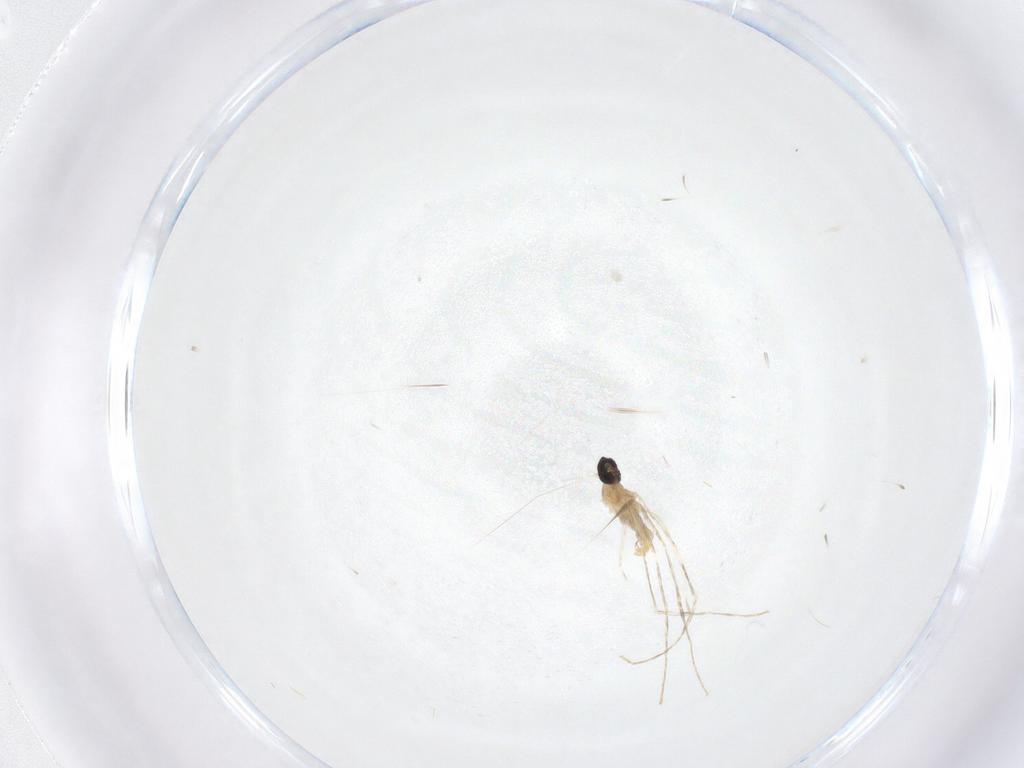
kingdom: Animalia
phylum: Arthropoda
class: Insecta
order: Diptera
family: Cecidomyiidae
